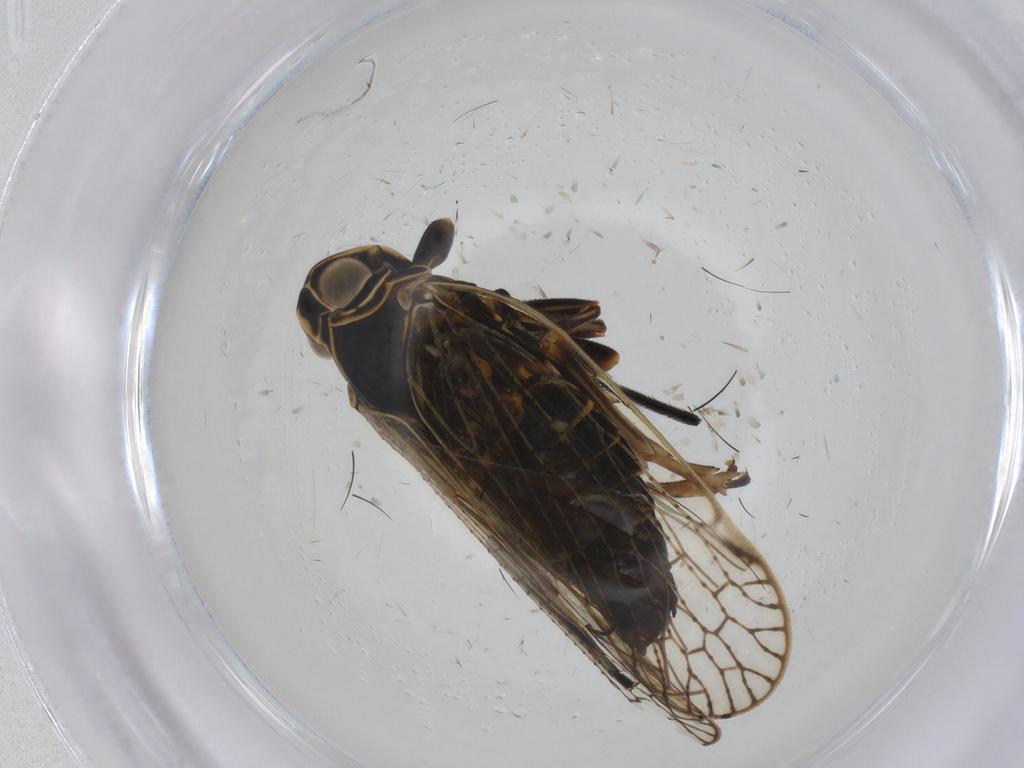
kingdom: Animalia
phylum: Arthropoda
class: Insecta
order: Hemiptera
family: Cixiidae
